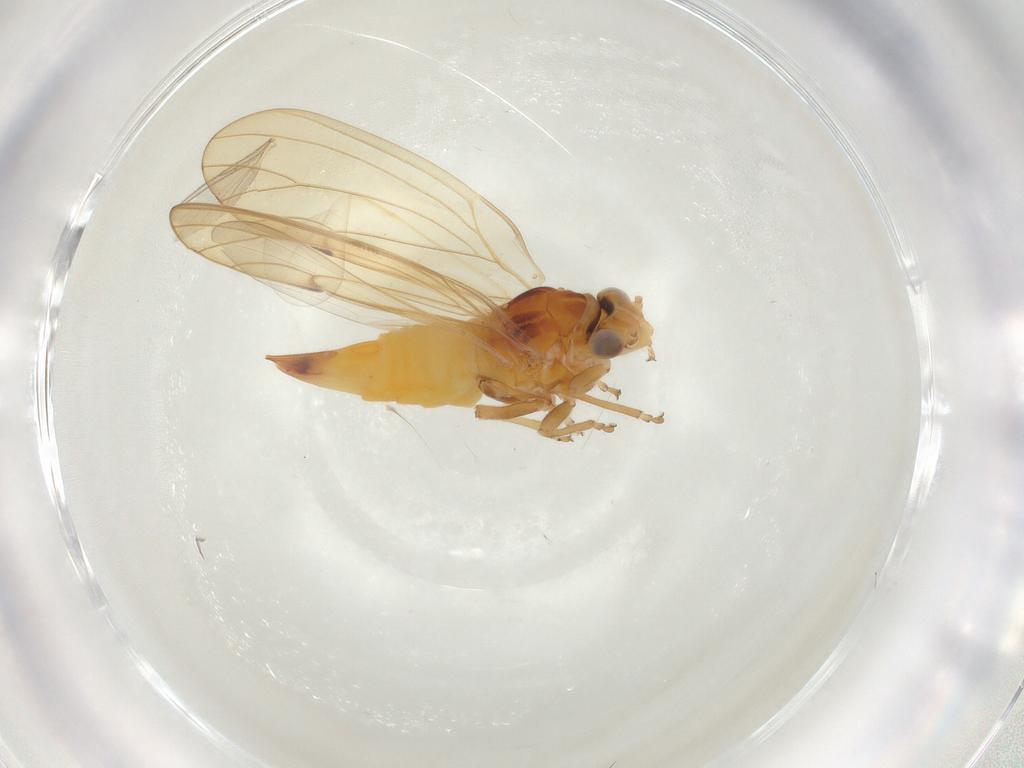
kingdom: Animalia
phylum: Arthropoda
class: Insecta
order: Hemiptera
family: Psylloidea_incertae_sedis
